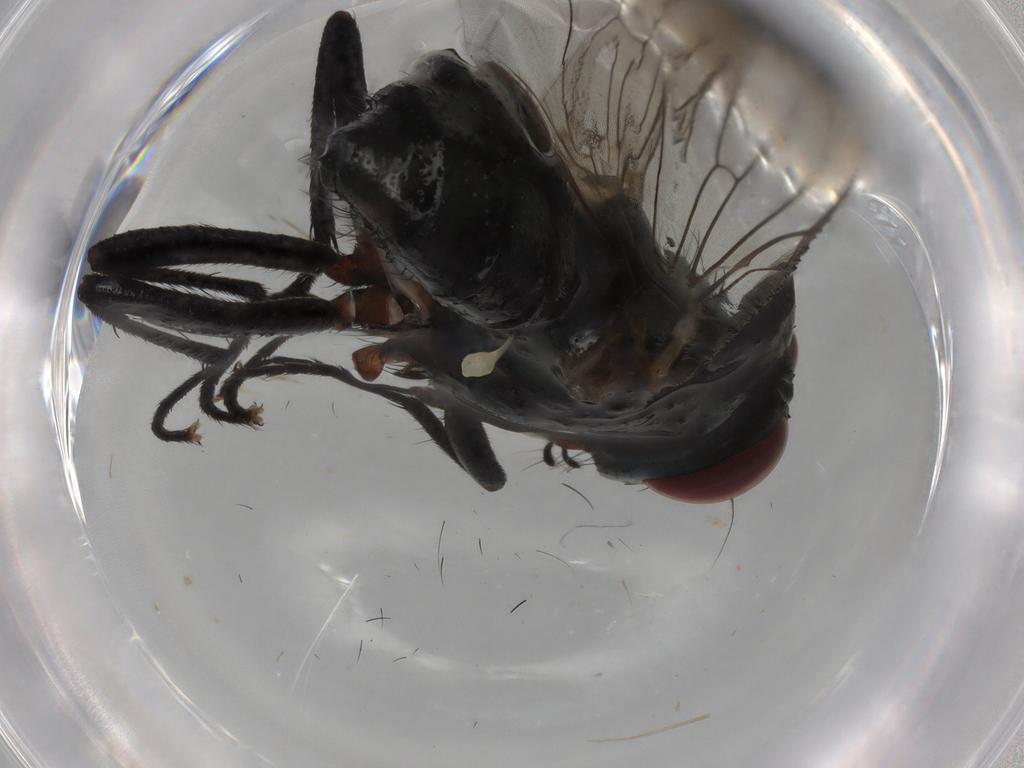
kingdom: Animalia
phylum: Arthropoda
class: Insecta
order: Diptera
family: Anthomyiidae
